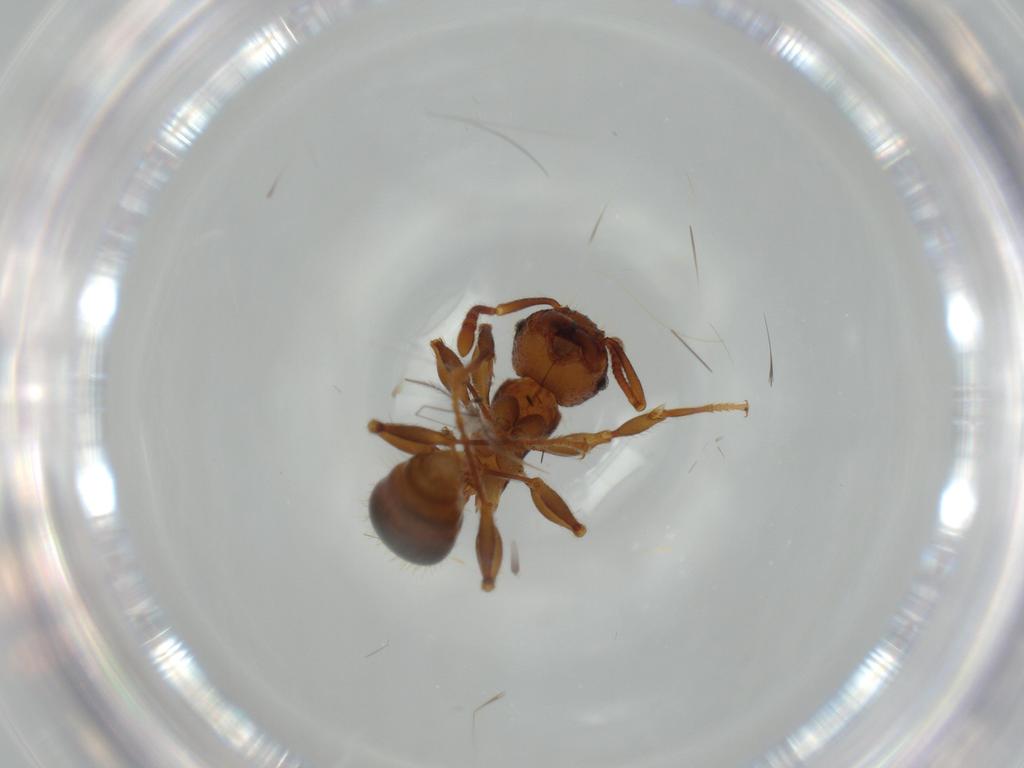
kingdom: Animalia
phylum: Arthropoda
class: Insecta
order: Hymenoptera
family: Formicidae
